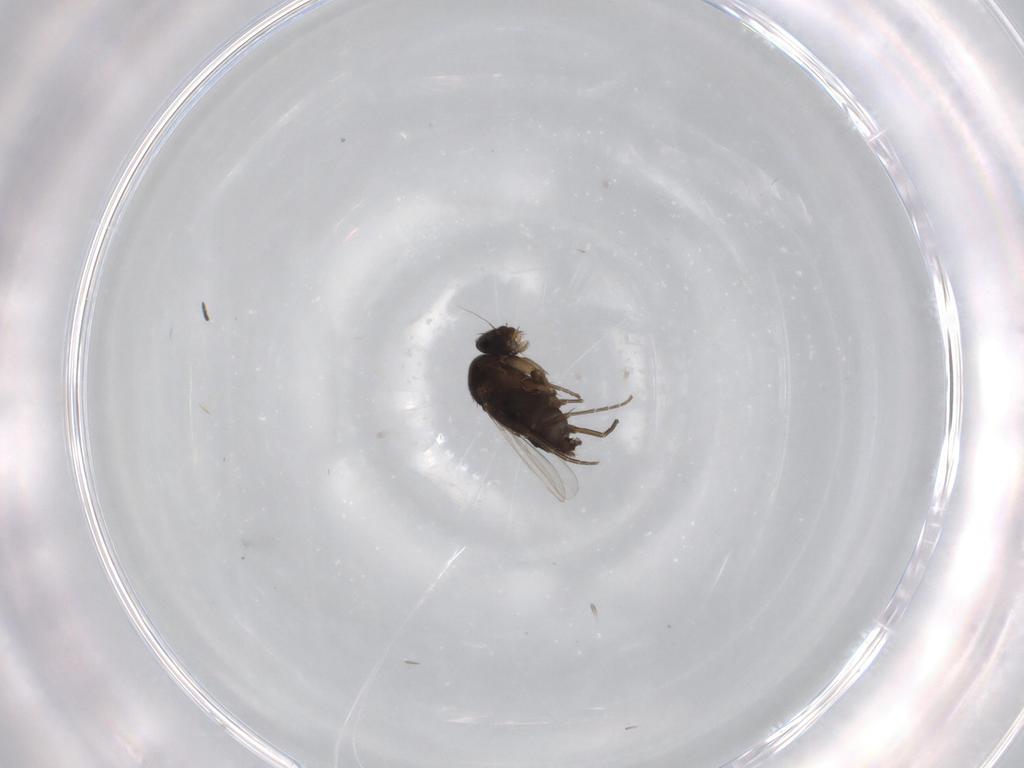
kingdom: Animalia
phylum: Arthropoda
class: Insecta
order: Diptera
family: Phoridae
